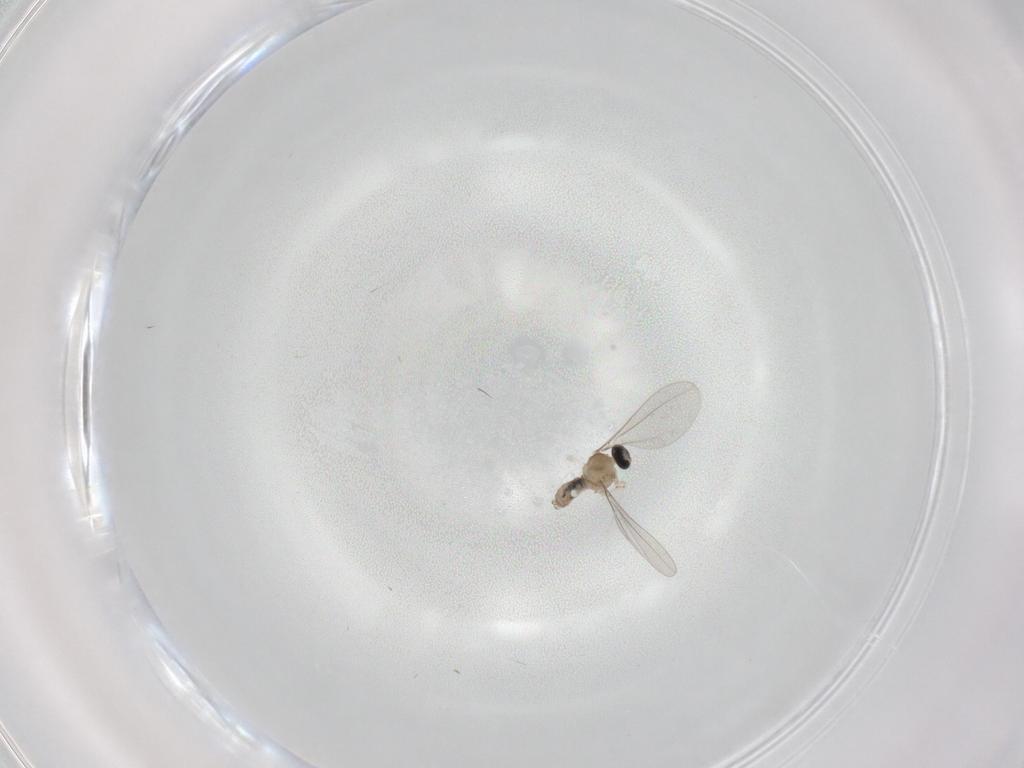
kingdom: Animalia
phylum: Arthropoda
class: Insecta
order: Diptera
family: Cecidomyiidae
